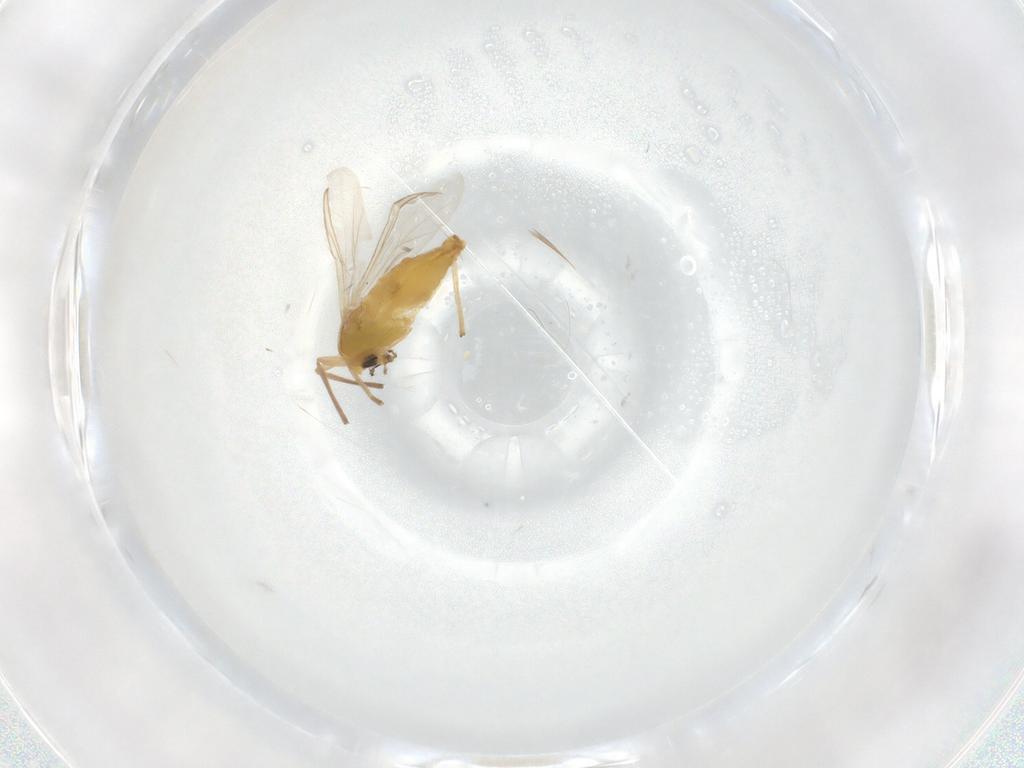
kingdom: Animalia
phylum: Arthropoda
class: Insecta
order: Diptera
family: Chironomidae
